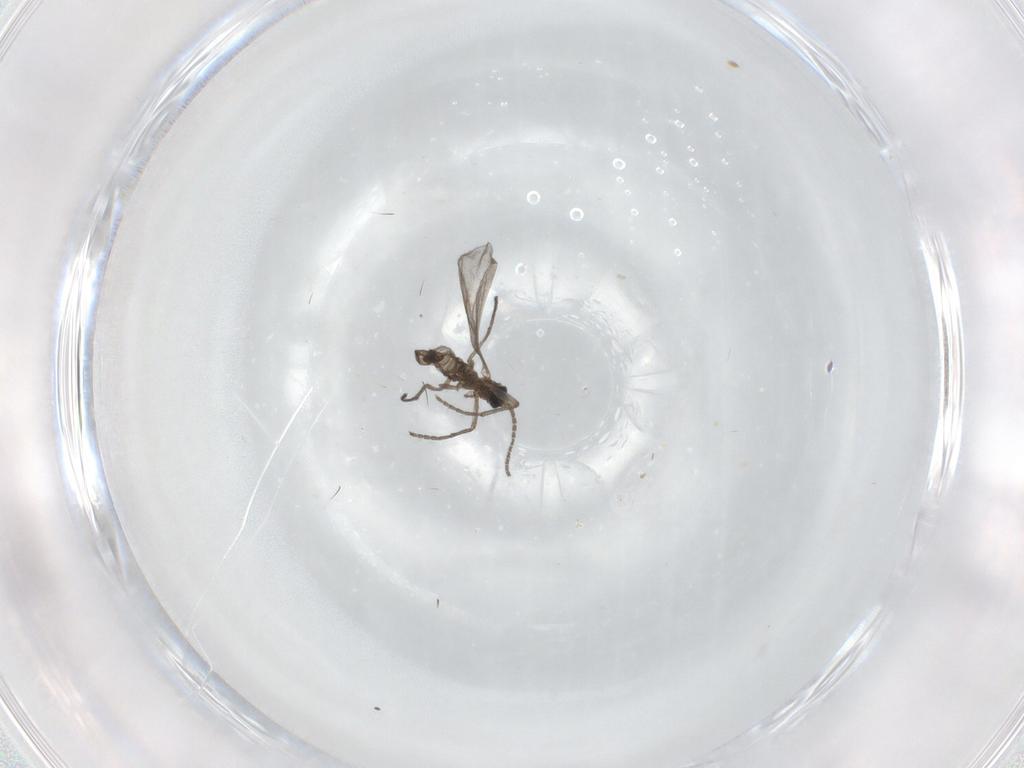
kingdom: Animalia
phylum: Arthropoda
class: Insecta
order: Diptera
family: Sciaridae
